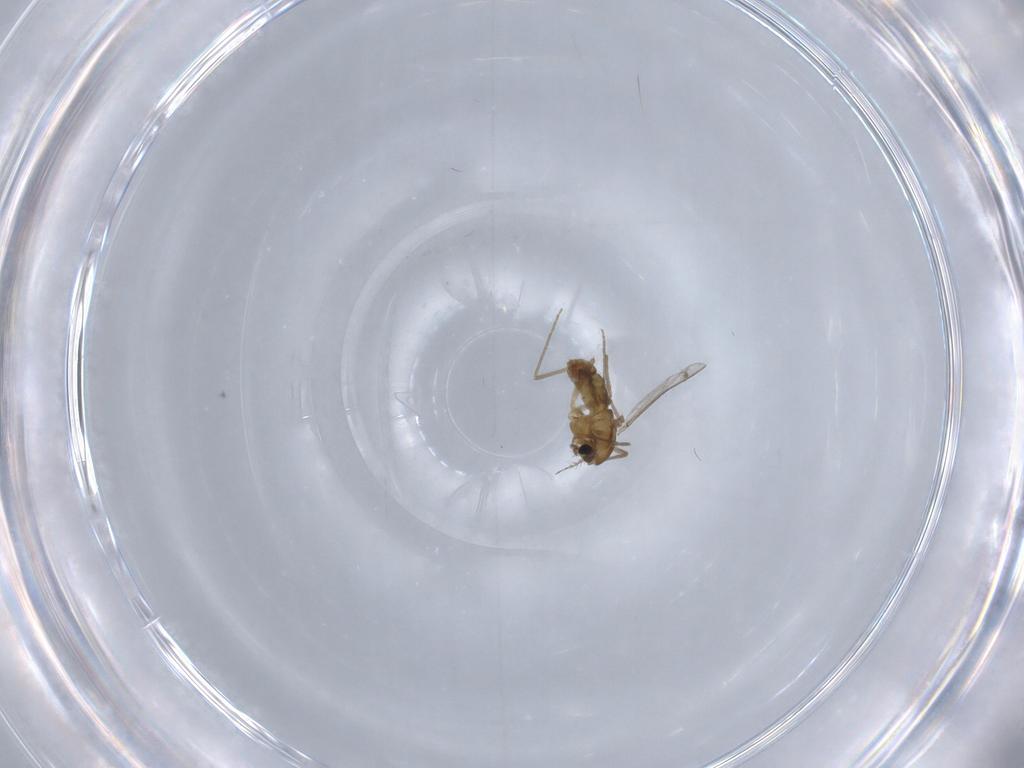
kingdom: Animalia
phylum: Arthropoda
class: Insecta
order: Diptera
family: Chironomidae
